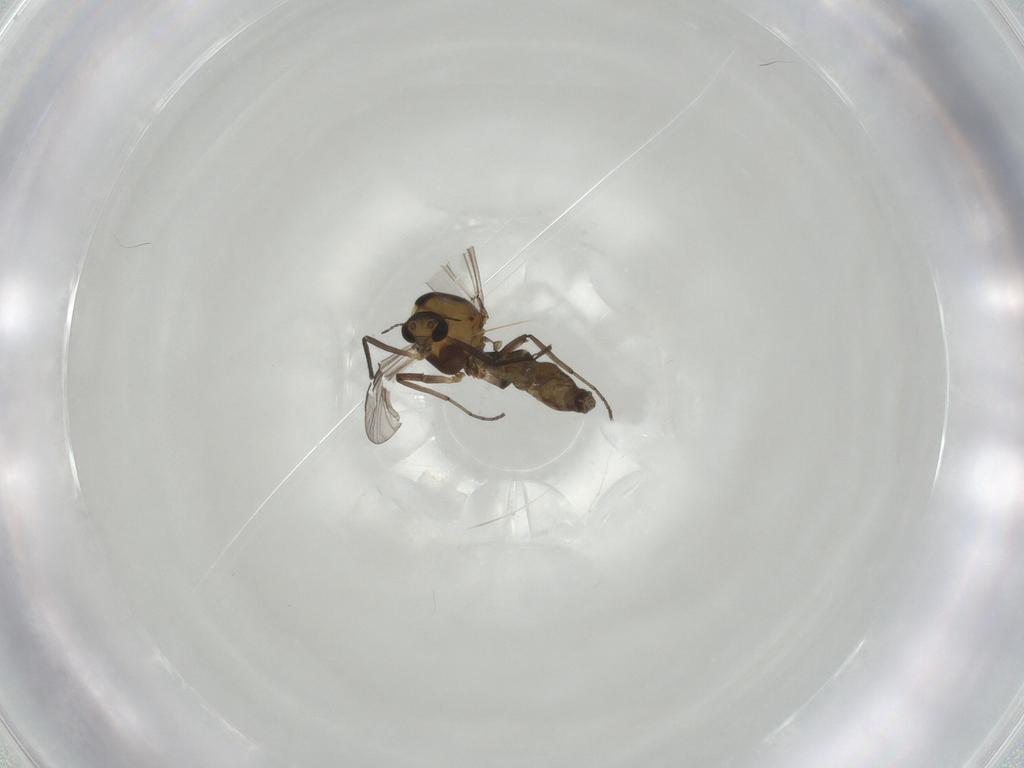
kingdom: Animalia
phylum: Arthropoda
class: Insecta
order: Diptera
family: Chironomidae
